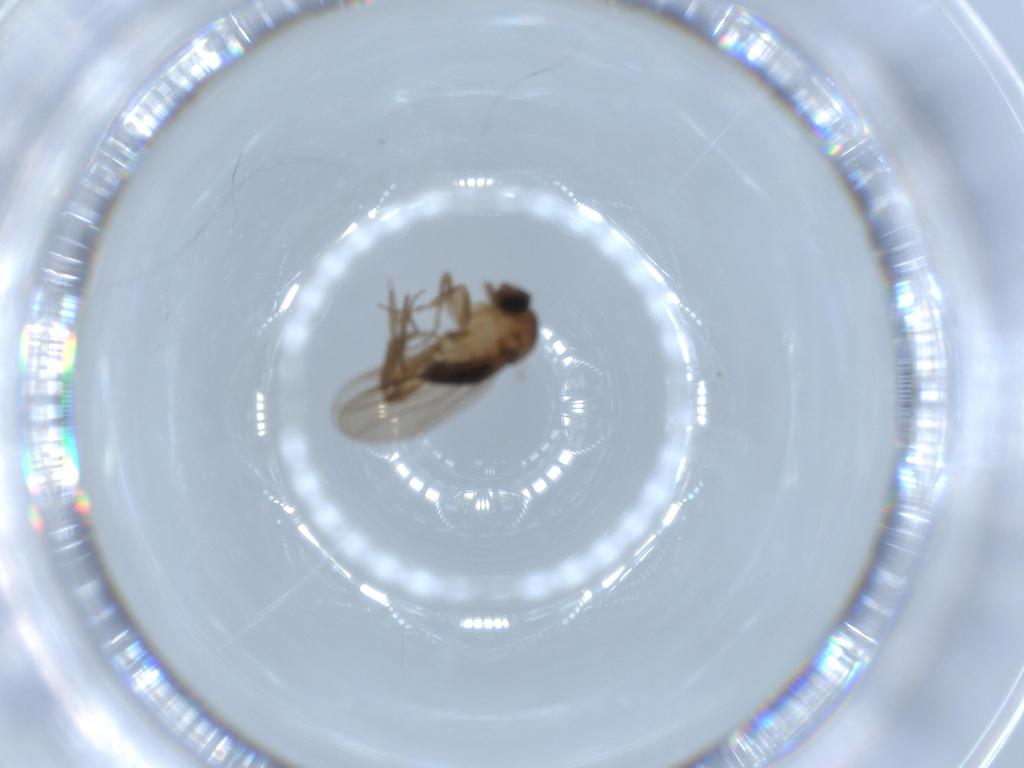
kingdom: Animalia
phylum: Arthropoda
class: Insecta
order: Diptera
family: Phoridae
